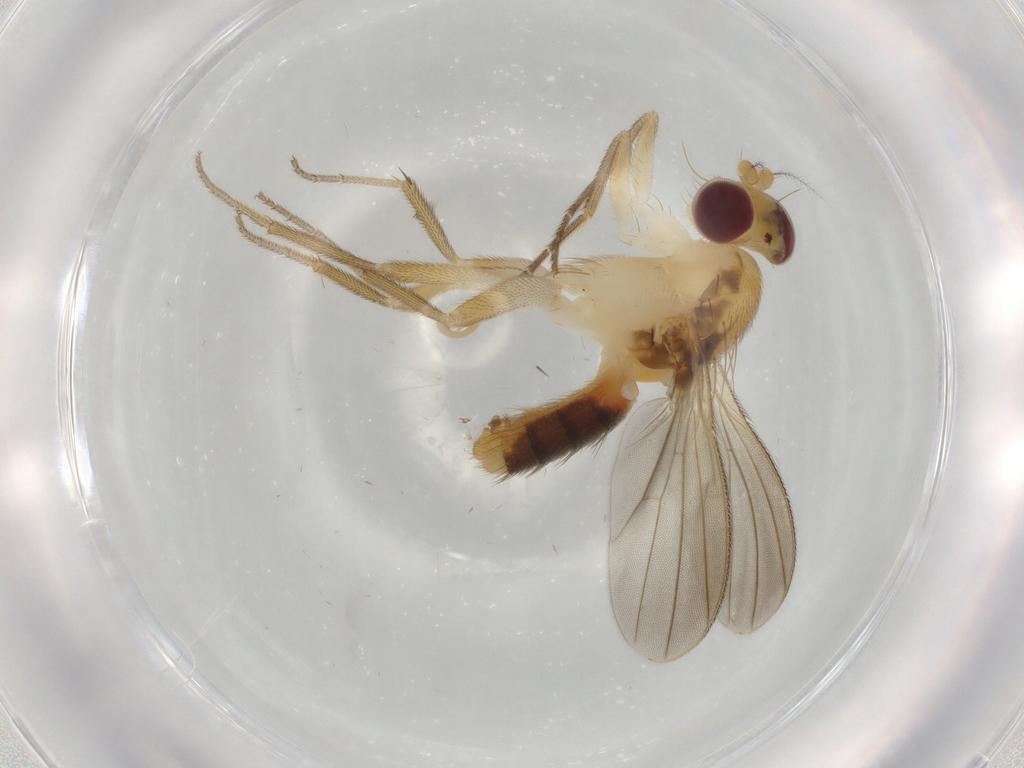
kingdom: Animalia
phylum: Arthropoda
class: Insecta
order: Diptera
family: Agromyzidae
